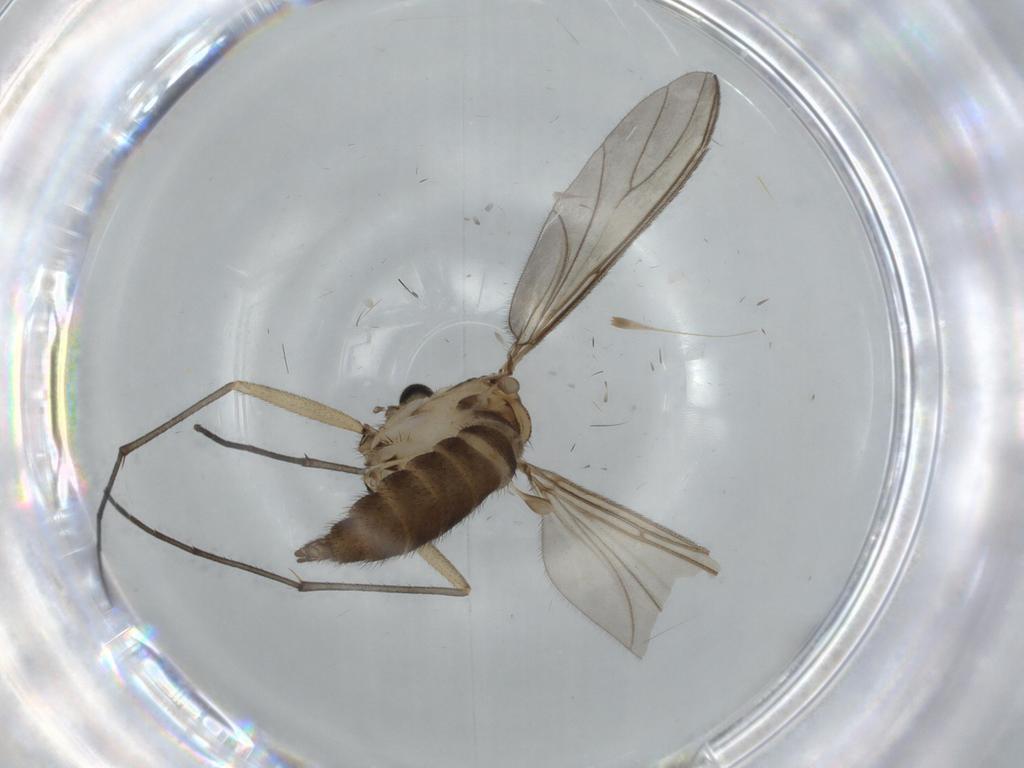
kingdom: Animalia
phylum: Arthropoda
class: Insecta
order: Diptera
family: Sciaridae
